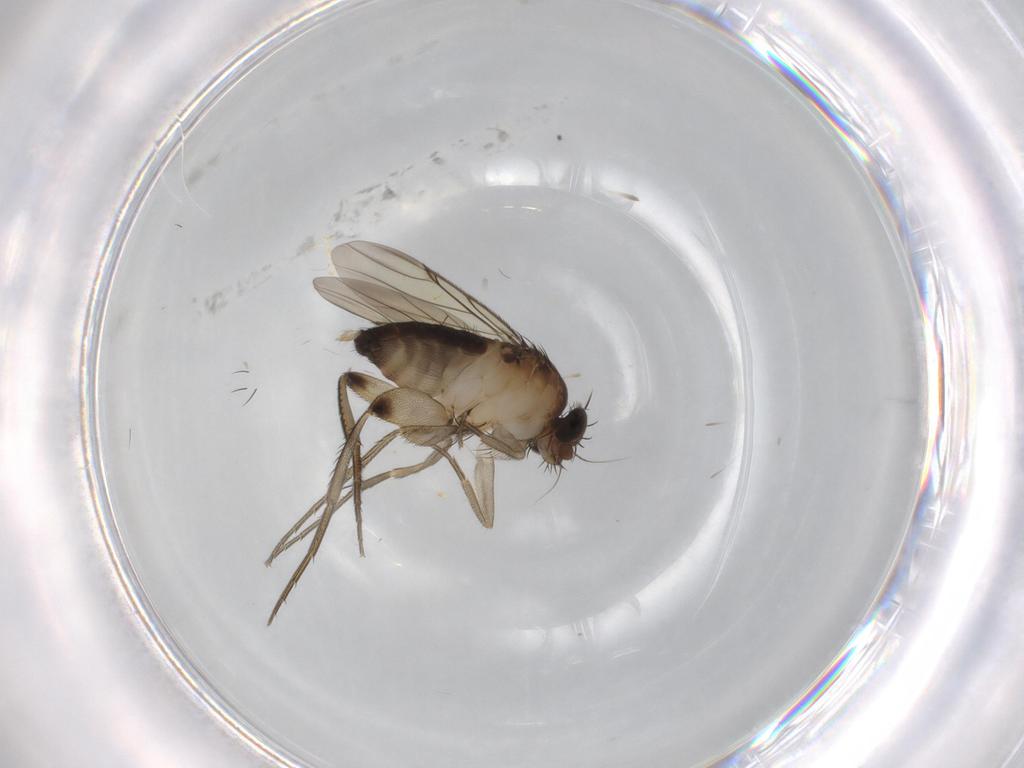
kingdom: Animalia
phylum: Arthropoda
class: Insecta
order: Diptera
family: Phoridae
